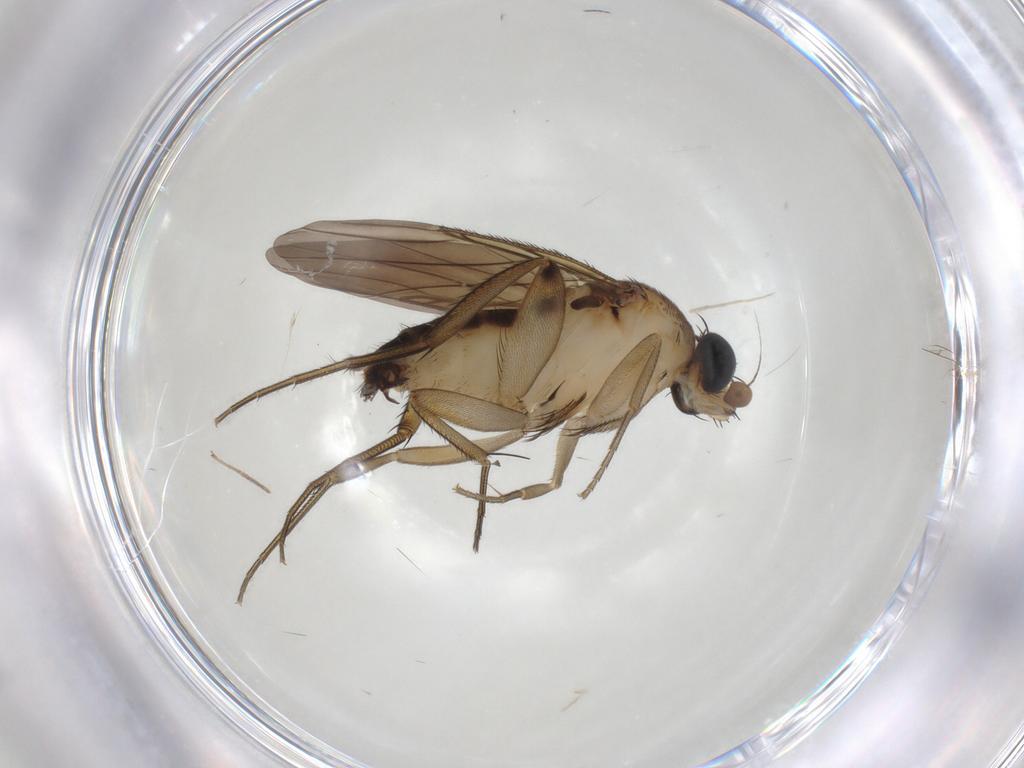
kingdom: Animalia
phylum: Arthropoda
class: Insecta
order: Diptera
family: Phoridae
